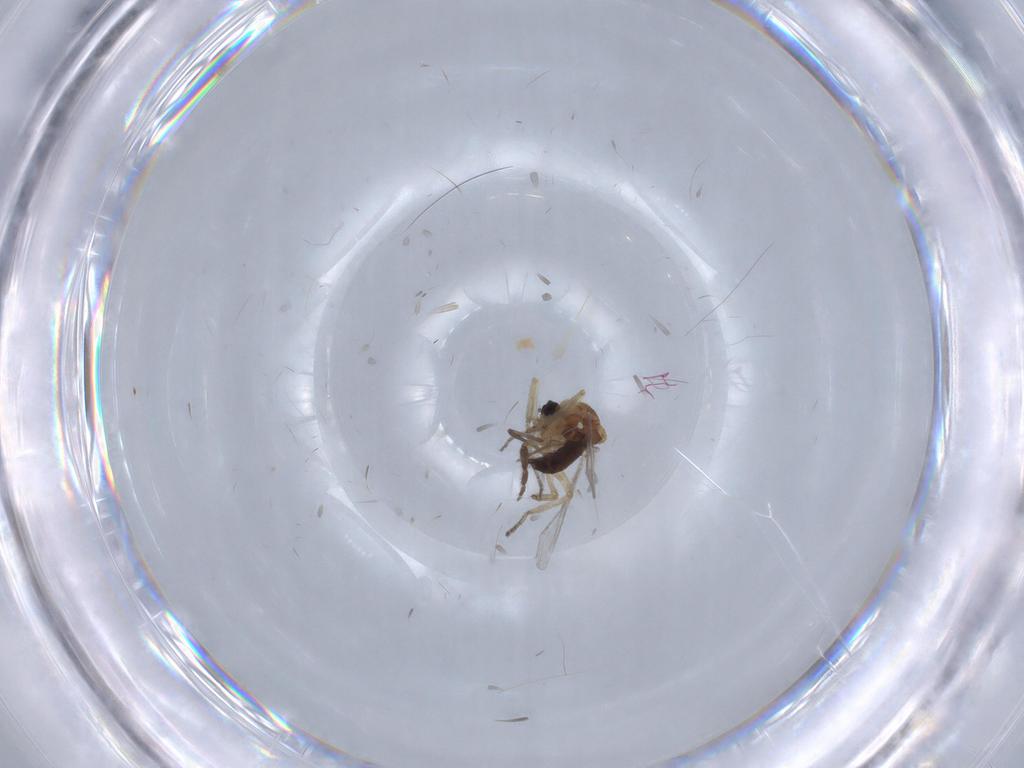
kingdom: Animalia
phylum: Arthropoda
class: Insecta
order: Diptera
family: Ceratopogonidae
